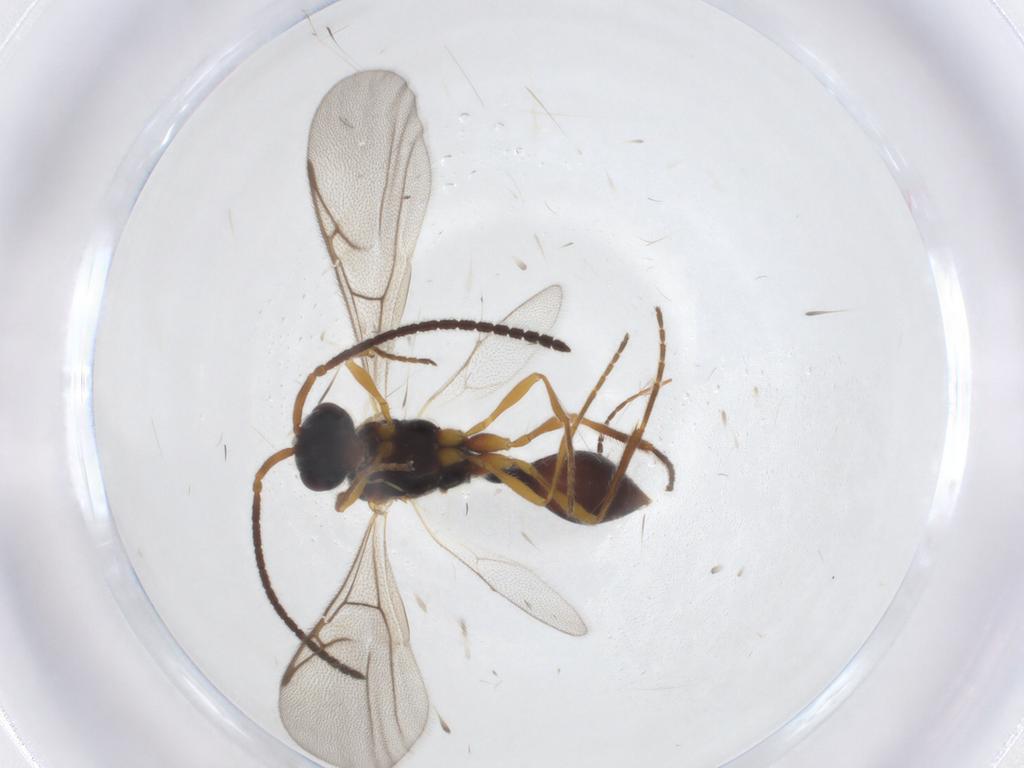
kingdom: Animalia
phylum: Arthropoda
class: Insecta
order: Hymenoptera
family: Diapriidae
